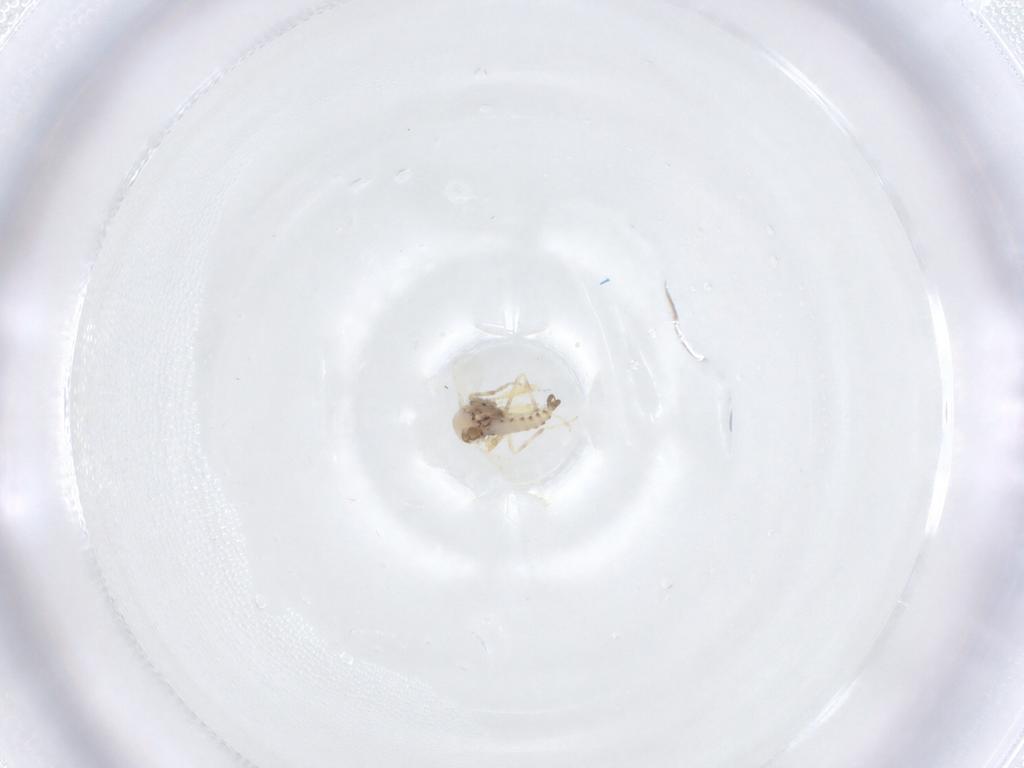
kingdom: Animalia
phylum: Arthropoda
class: Insecta
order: Diptera
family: Ceratopogonidae
